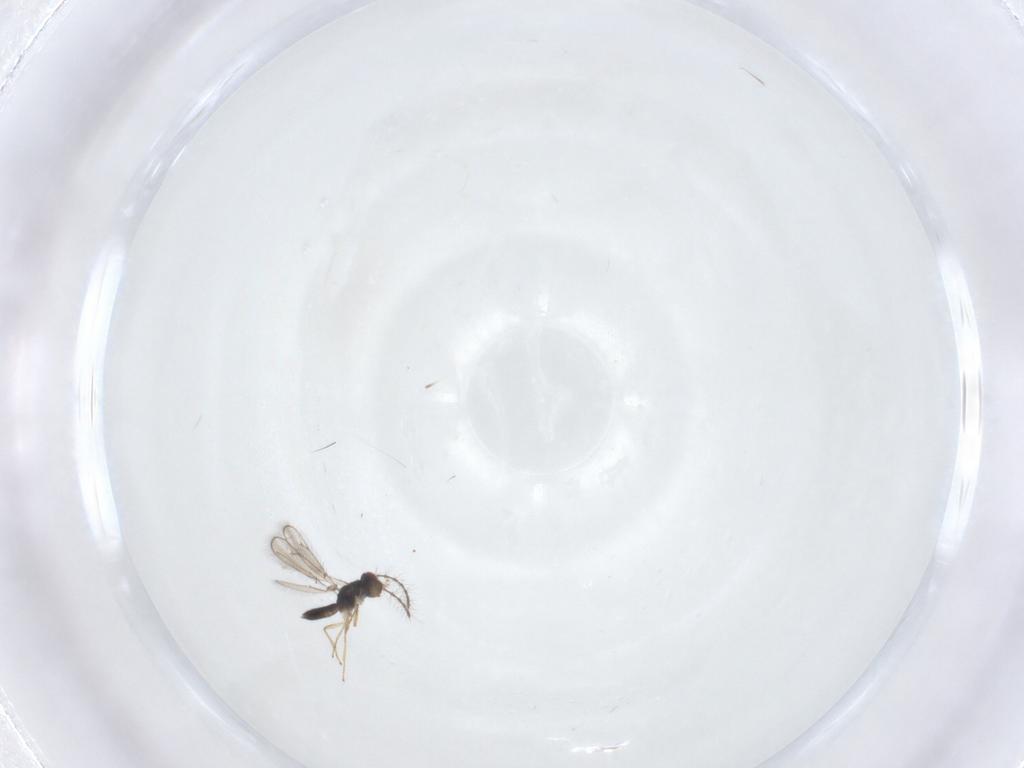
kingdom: Animalia
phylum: Arthropoda
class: Insecta
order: Hymenoptera
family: Pteromalidae
